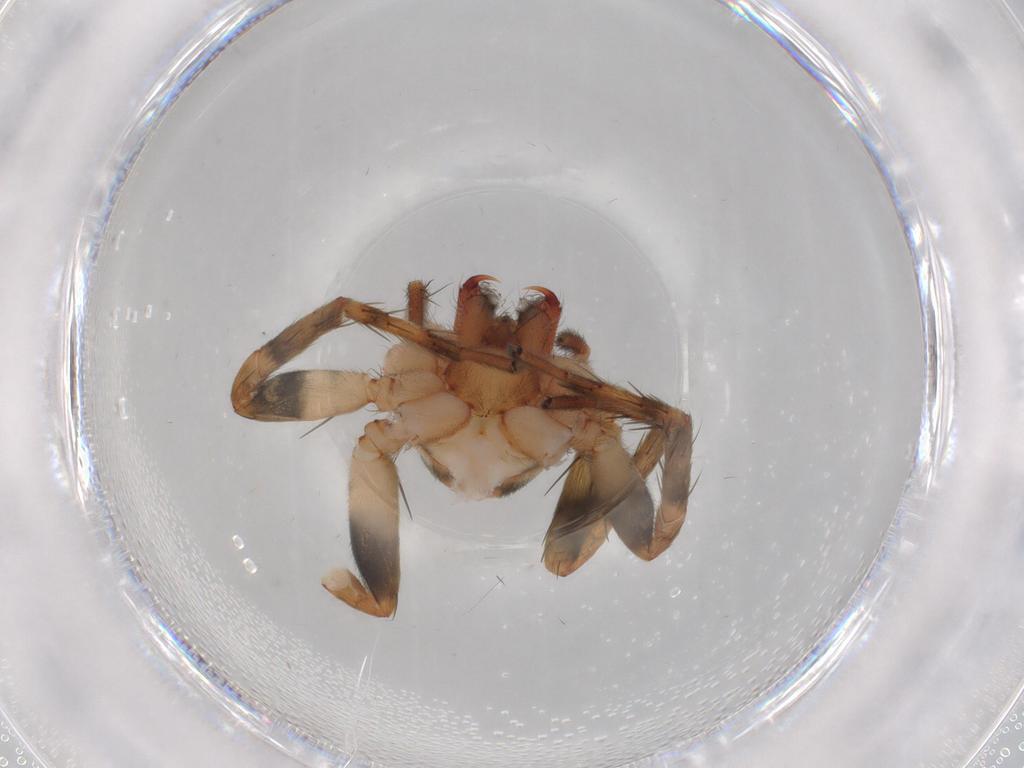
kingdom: Animalia
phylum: Arthropoda
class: Arachnida
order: Araneae
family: Anyphaenidae
